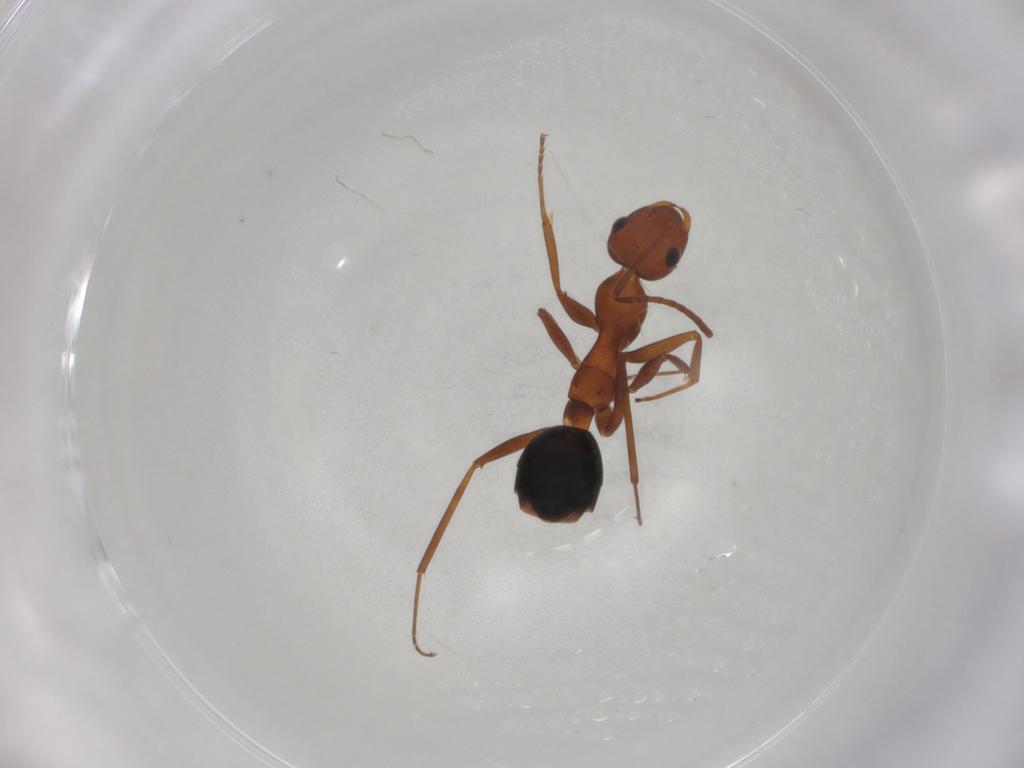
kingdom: Animalia
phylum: Arthropoda
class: Insecta
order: Hymenoptera
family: Formicidae
